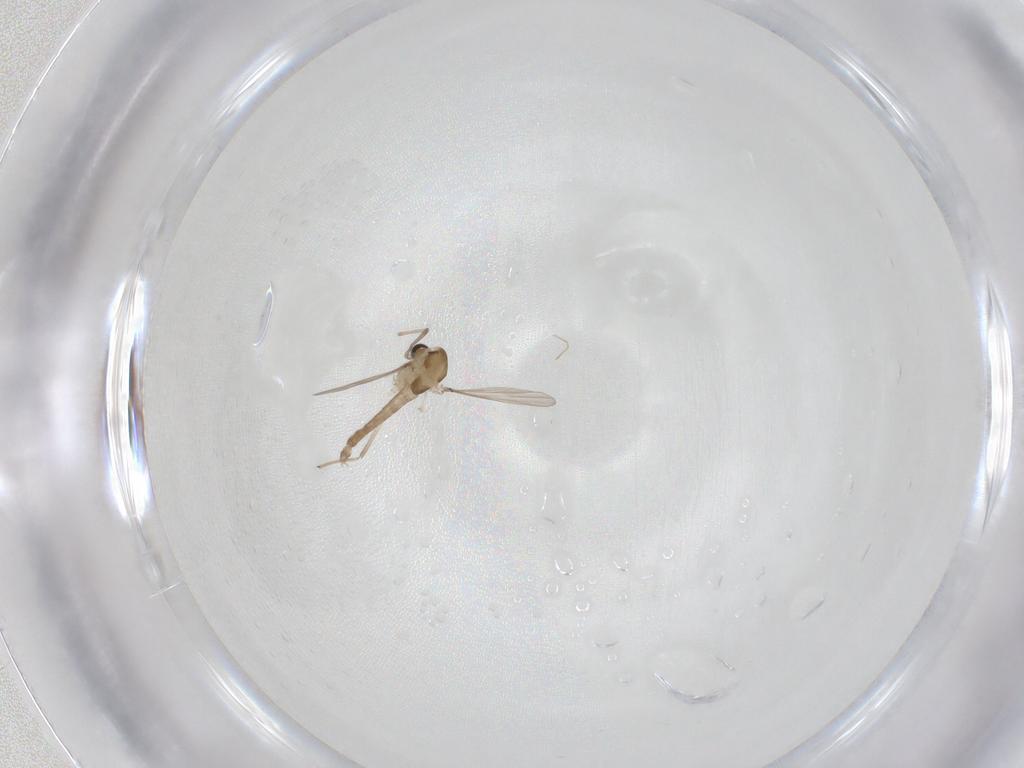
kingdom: Animalia
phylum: Arthropoda
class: Insecta
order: Diptera
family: Chironomidae
